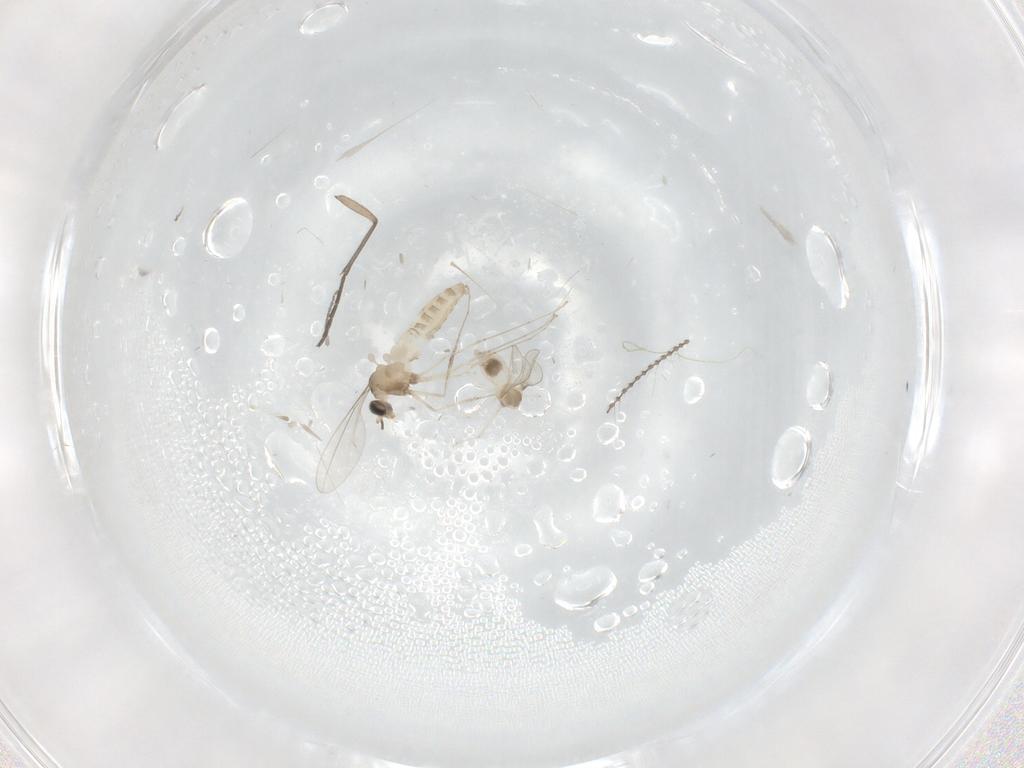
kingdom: Animalia
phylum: Arthropoda
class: Insecta
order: Diptera
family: Cecidomyiidae
